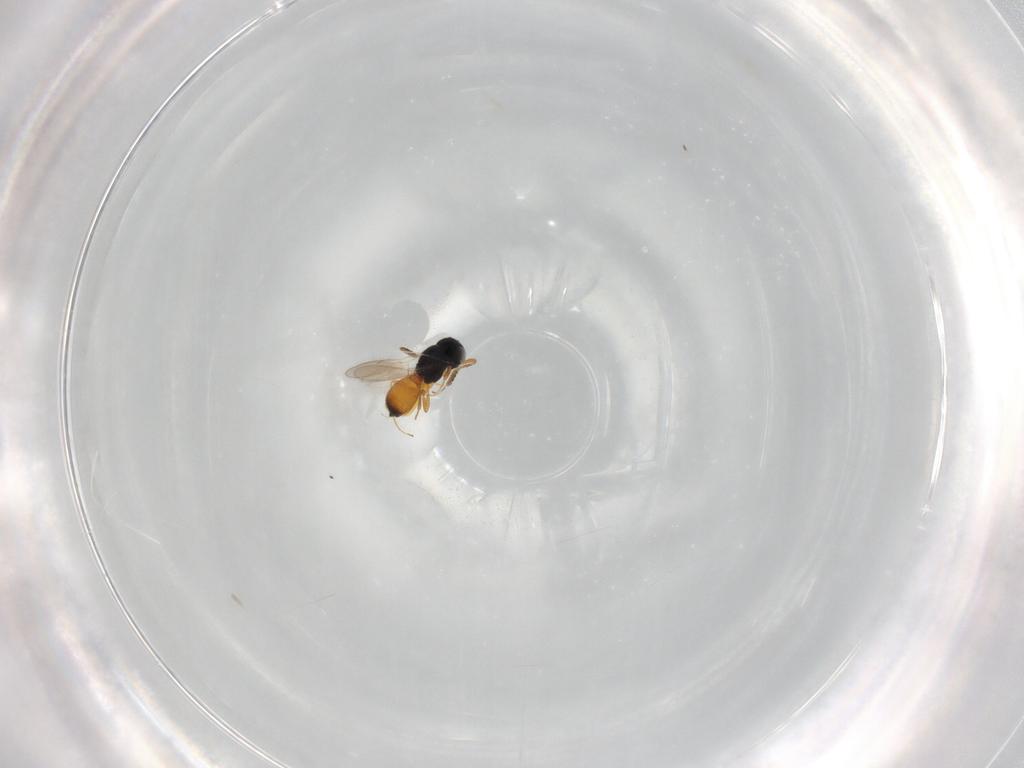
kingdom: Animalia
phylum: Arthropoda
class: Insecta
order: Hymenoptera
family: Scelionidae
